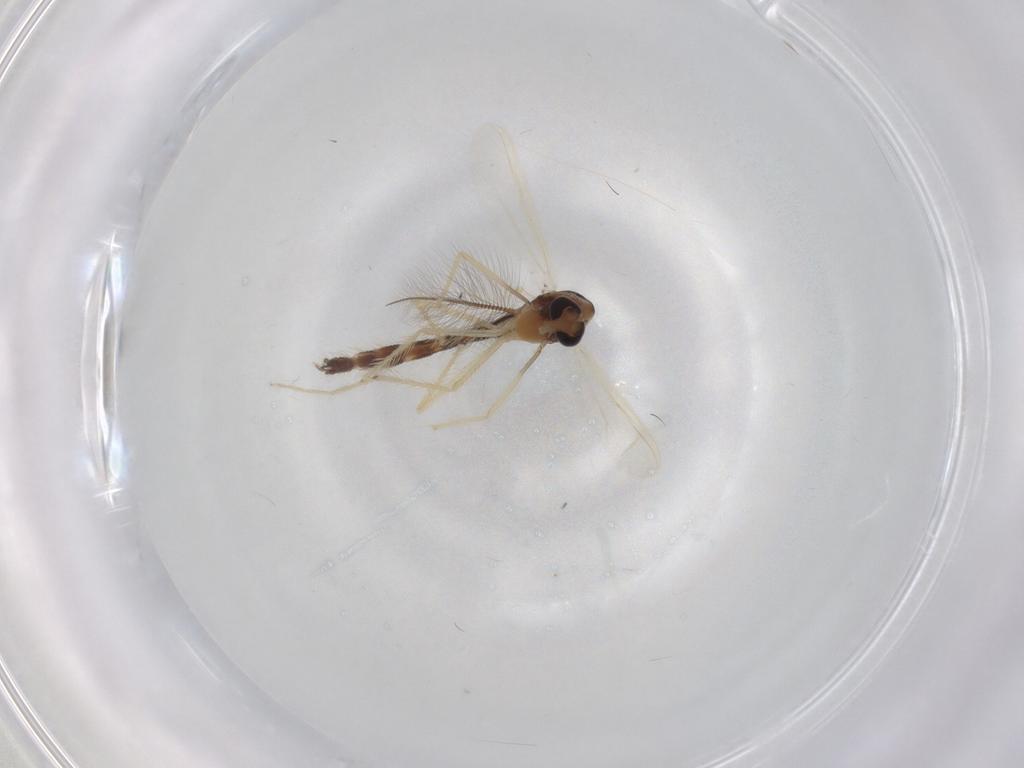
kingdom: Animalia
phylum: Arthropoda
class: Insecta
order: Diptera
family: Chironomidae
